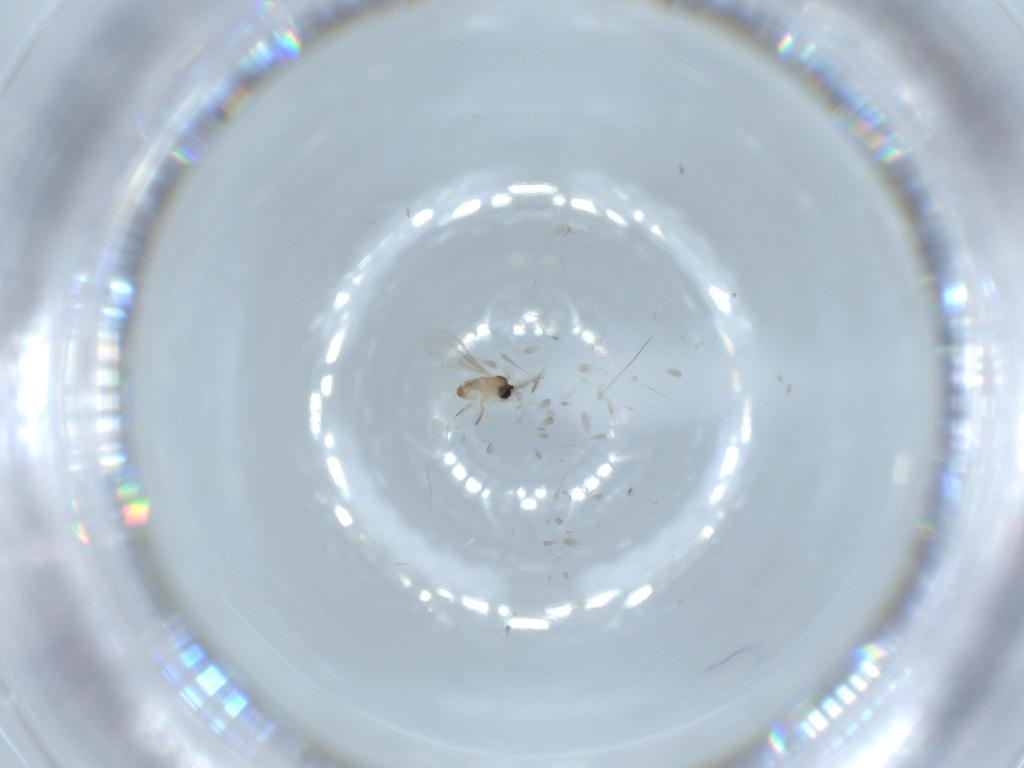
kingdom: Animalia
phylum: Arthropoda
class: Insecta
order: Diptera
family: Cecidomyiidae
